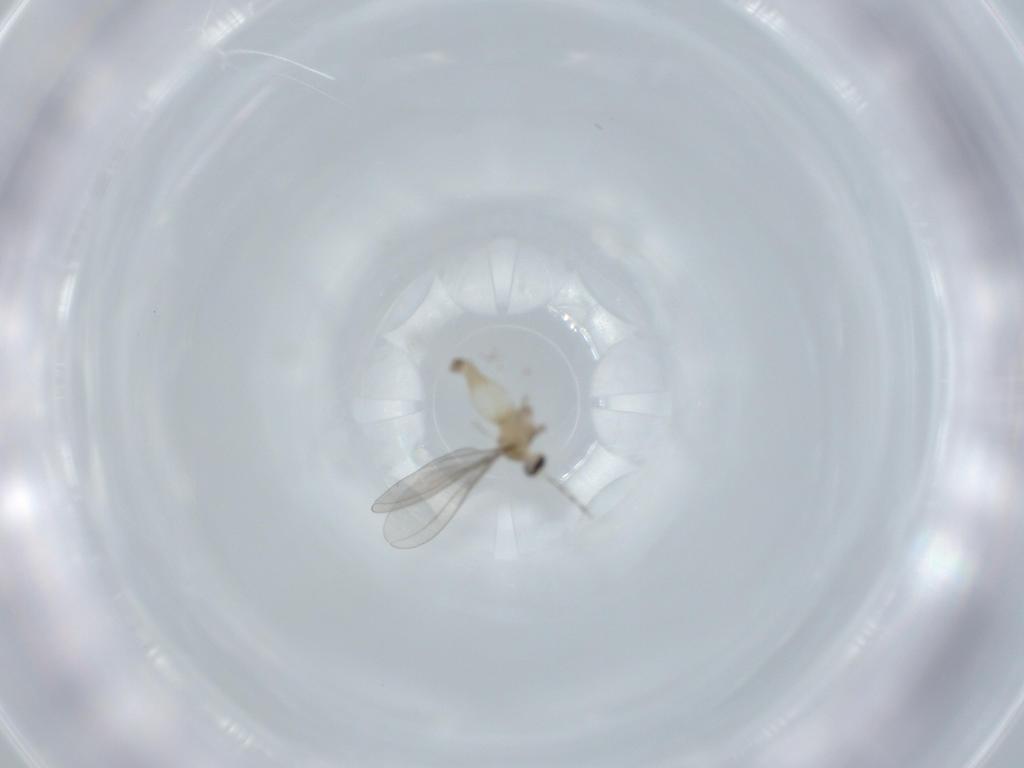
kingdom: Animalia
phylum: Arthropoda
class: Insecta
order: Diptera
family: Cecidomyiidae
